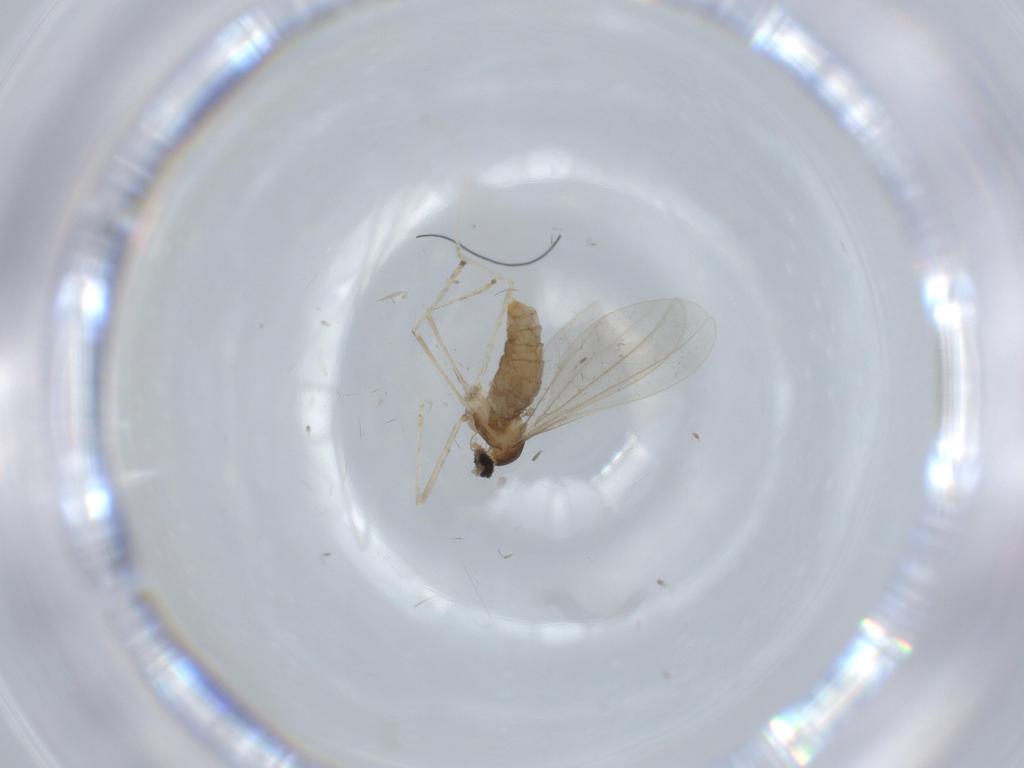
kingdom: Animalia
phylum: Arthropoda
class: Insecta
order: Diptera
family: Cecidomyiidae
